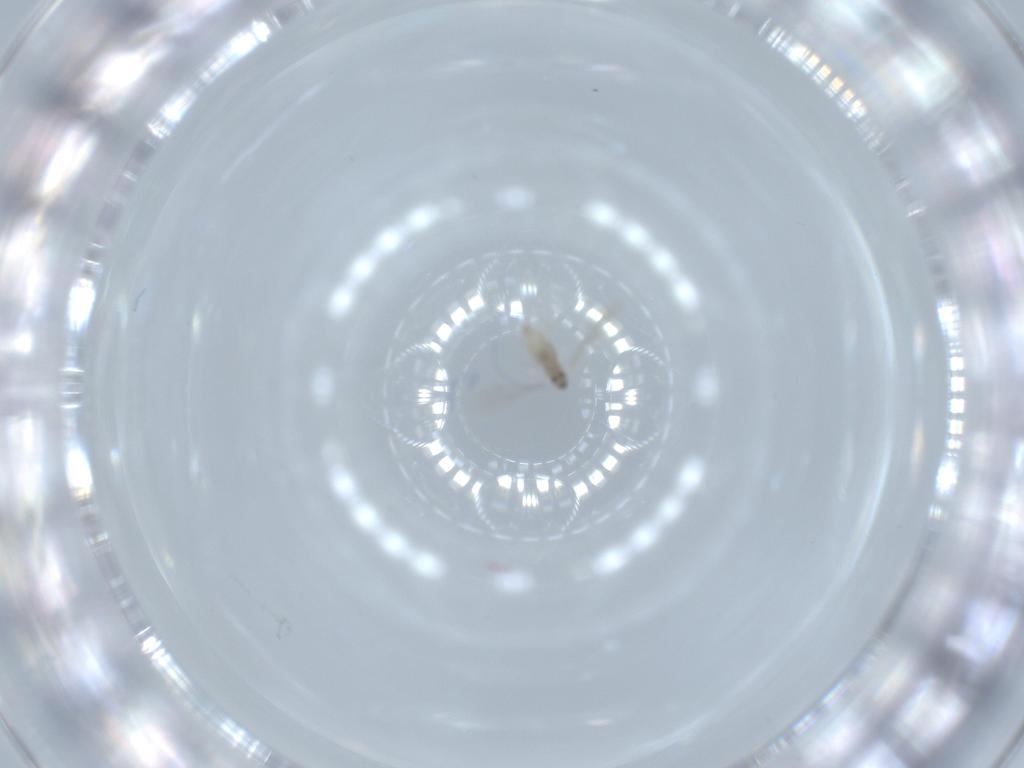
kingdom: Animalia
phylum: Arthropoda
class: Insecta
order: Diptera
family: Cecidomyiidae
